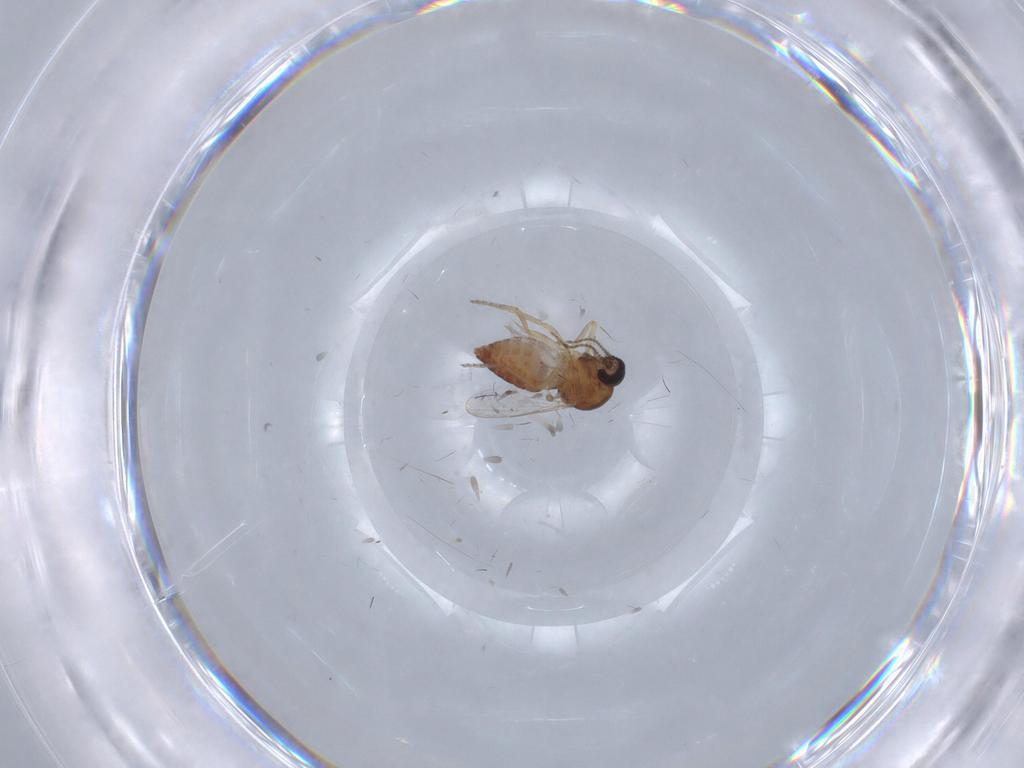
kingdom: Animalia
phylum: Arthropoda
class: Insecta
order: Diptera
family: Ceratopogonidae
